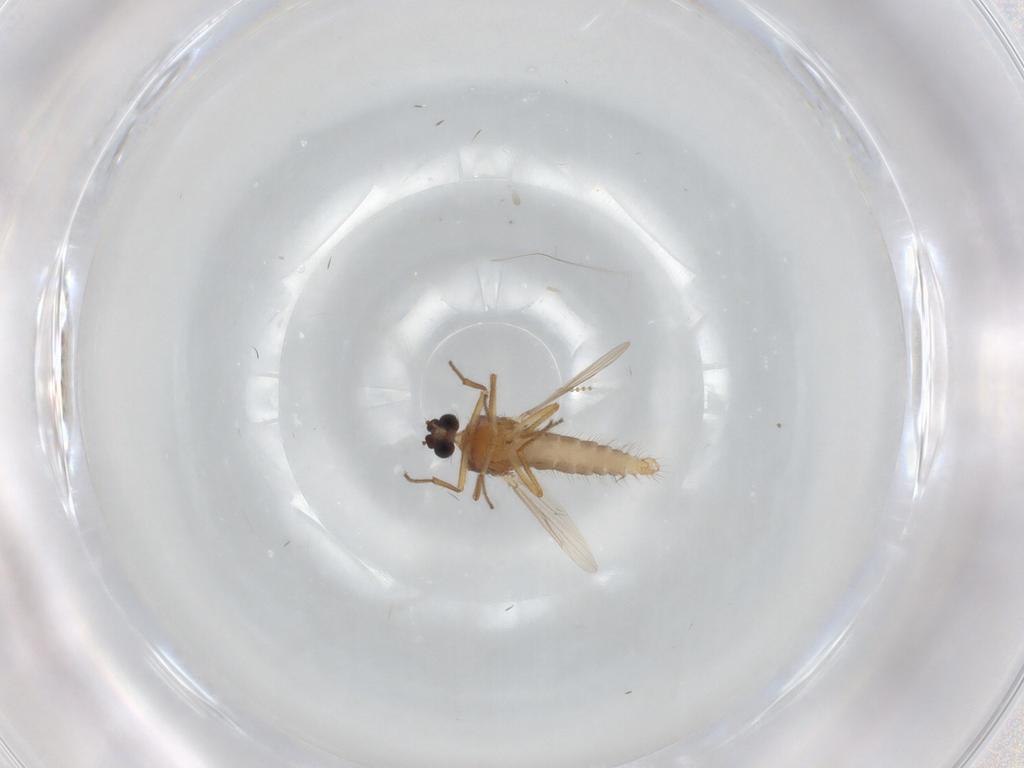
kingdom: Animalia
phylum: Arthropoda
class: Insecta
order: Diptera
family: Ceratopogonidae
